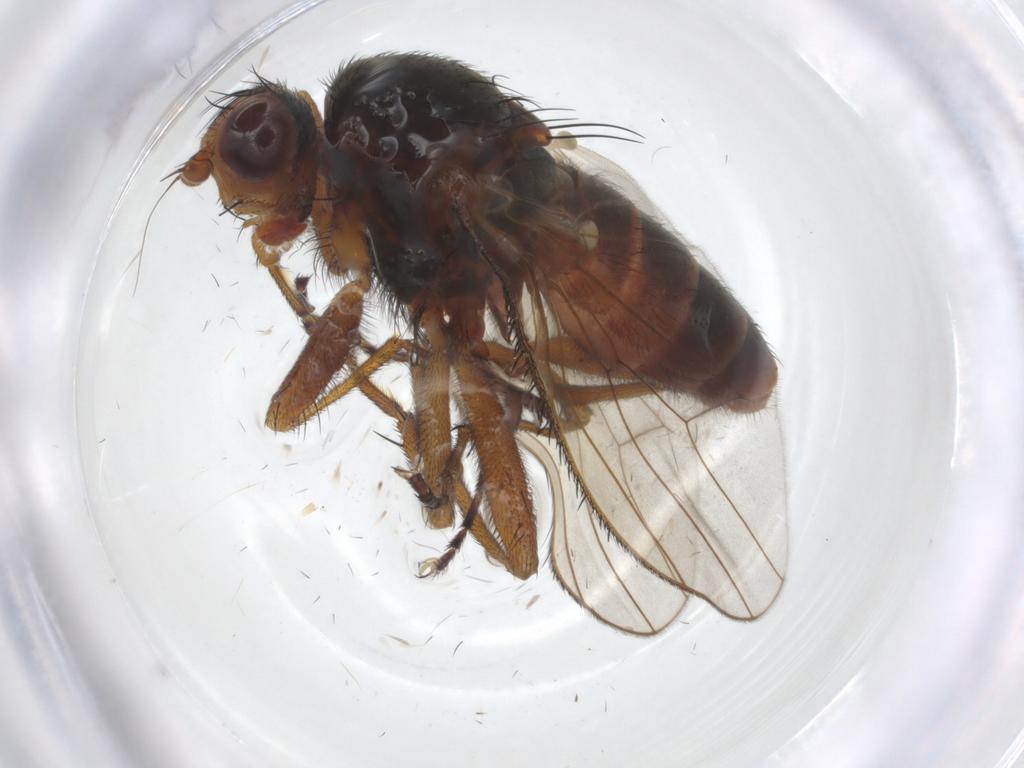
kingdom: Animalia
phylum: Arthropoda
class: Insecta
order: Diptera
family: Heleomyzidae
